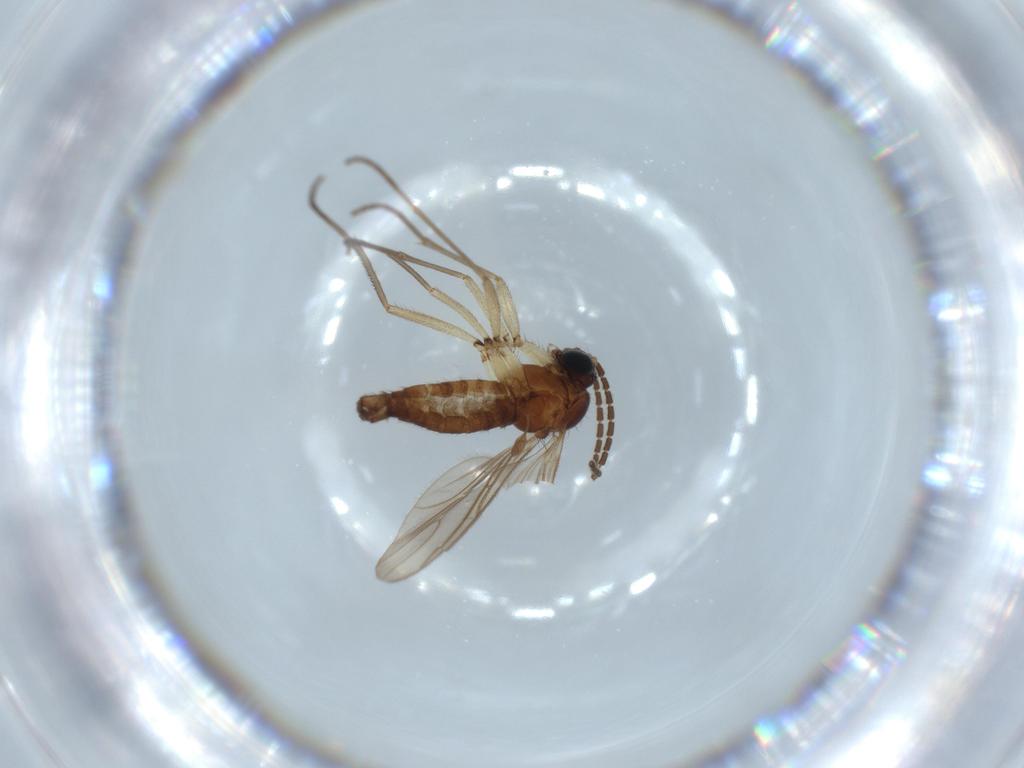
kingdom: Animalia
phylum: Arthropoda
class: Insecta
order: Diptera
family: Sciaridae
